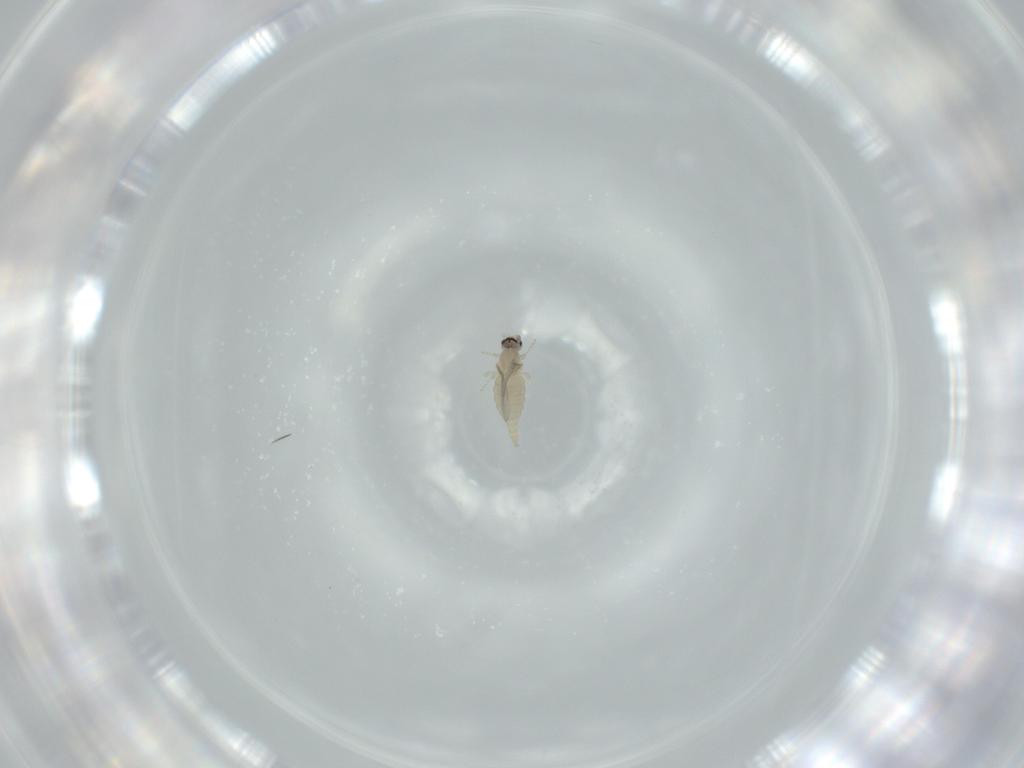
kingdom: Animalia
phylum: Arthropoda
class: Insecta
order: Diptera
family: Cecidomyiidae
